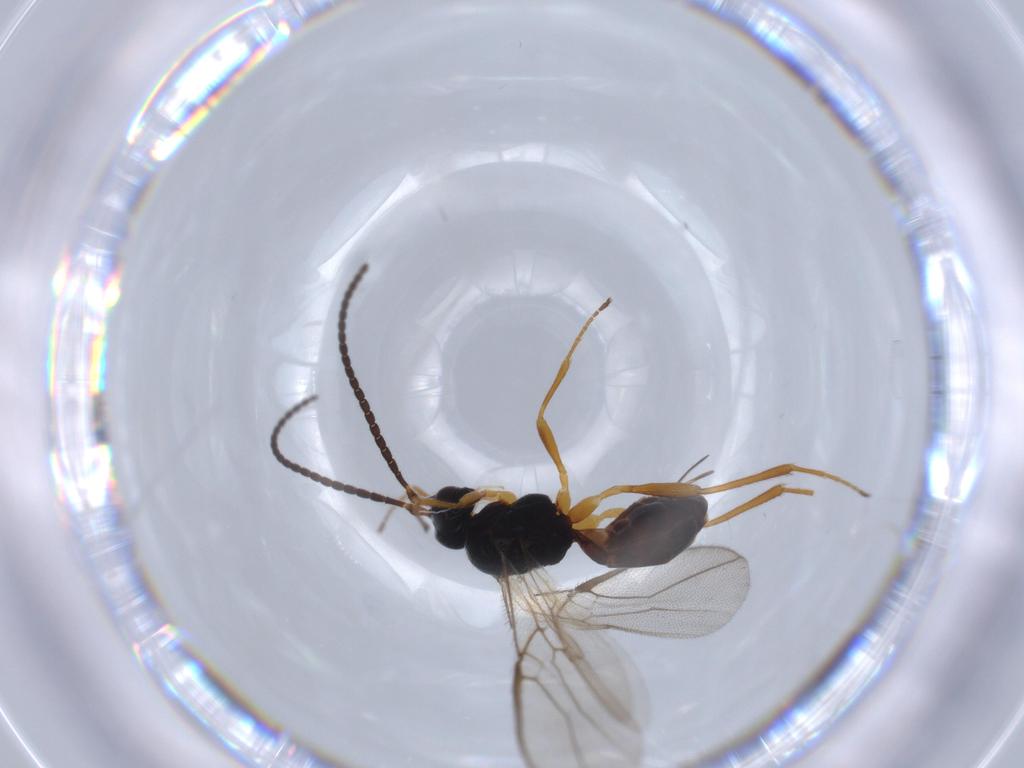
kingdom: Animalia
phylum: Arthropoda
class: Insecta
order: Hymenoptera
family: Braconidae
